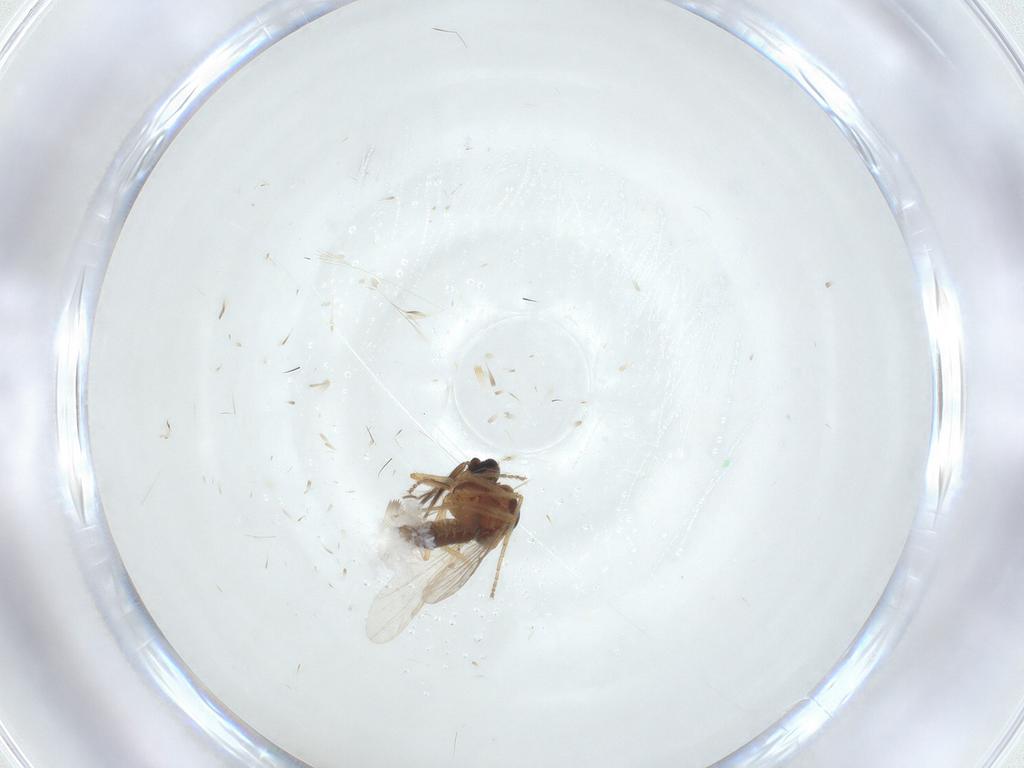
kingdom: Animalia
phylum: Arthropoda
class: Insecta
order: Diptera
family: Ceratopogonidae
